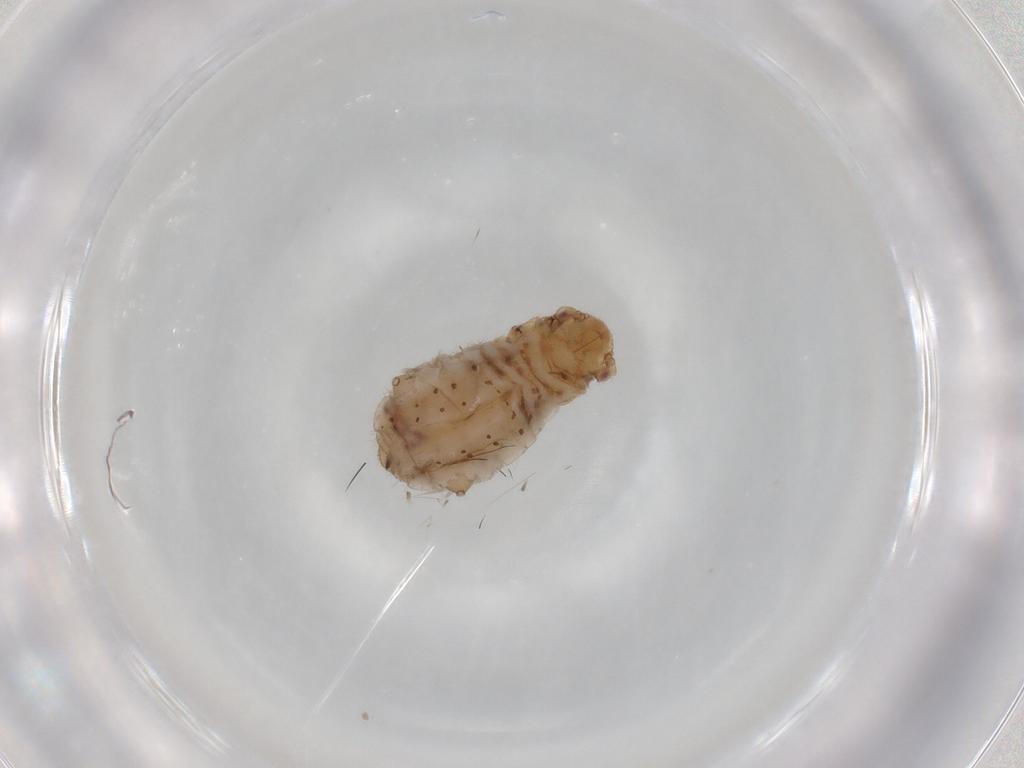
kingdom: Animalia
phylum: Arthropoda
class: Insecta
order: Hemiptera
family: Aphididae
